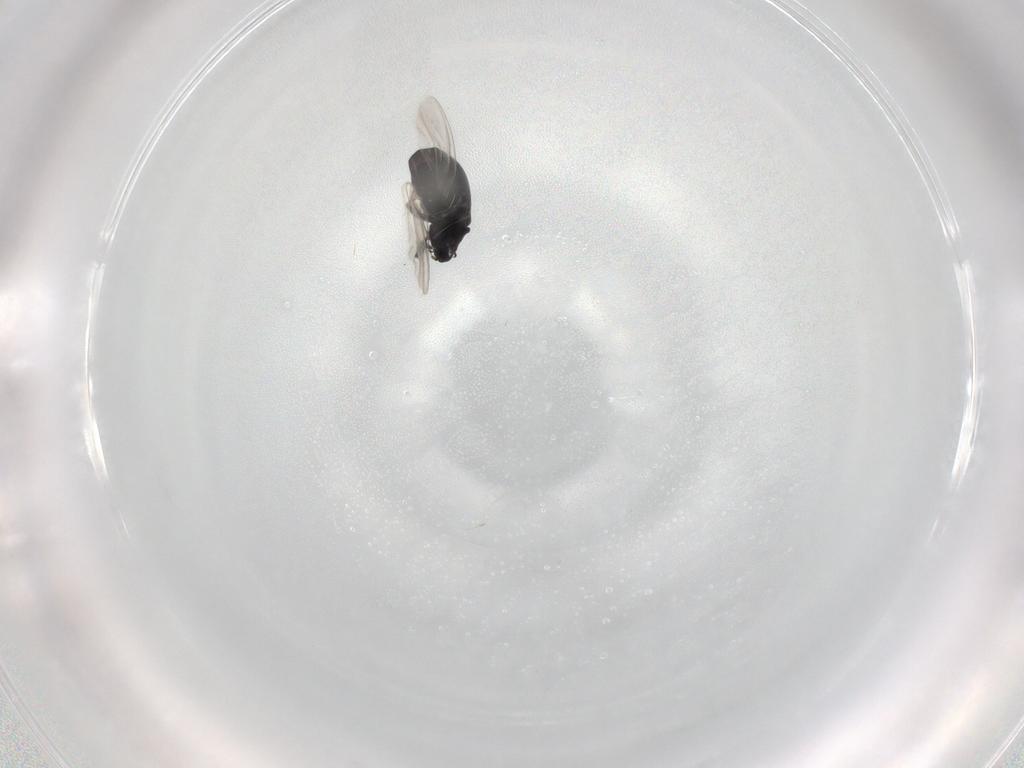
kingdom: Animalia
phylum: Arthropoda
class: Insecta
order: Coleoptera
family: Curculionidae
